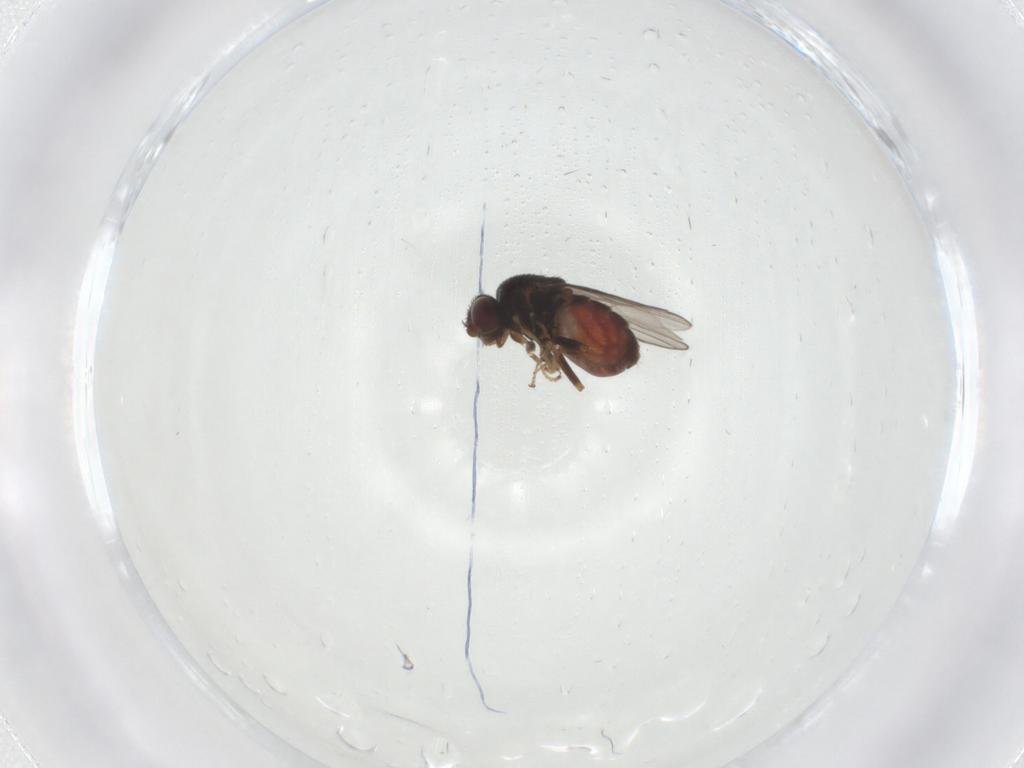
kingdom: Animalia
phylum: Arthropoda
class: Insecta
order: Diptera
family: Chloropidae
